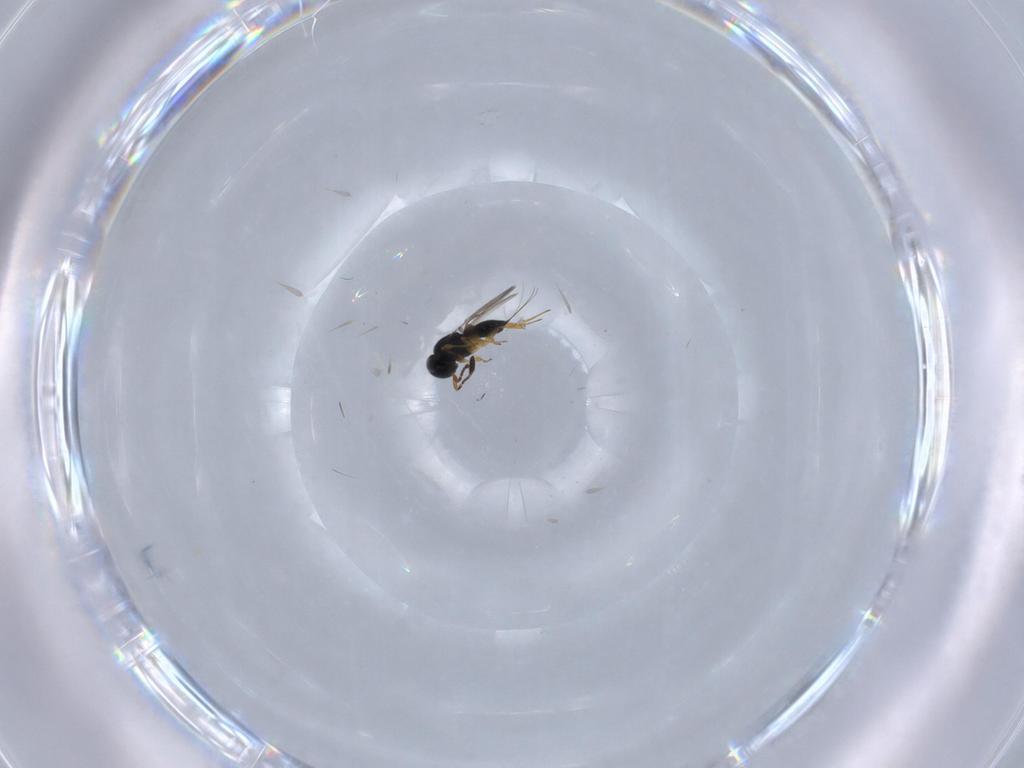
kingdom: Animalia
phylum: Arthropoda
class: Insecta
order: Hymenoptera
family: Scelionidae
